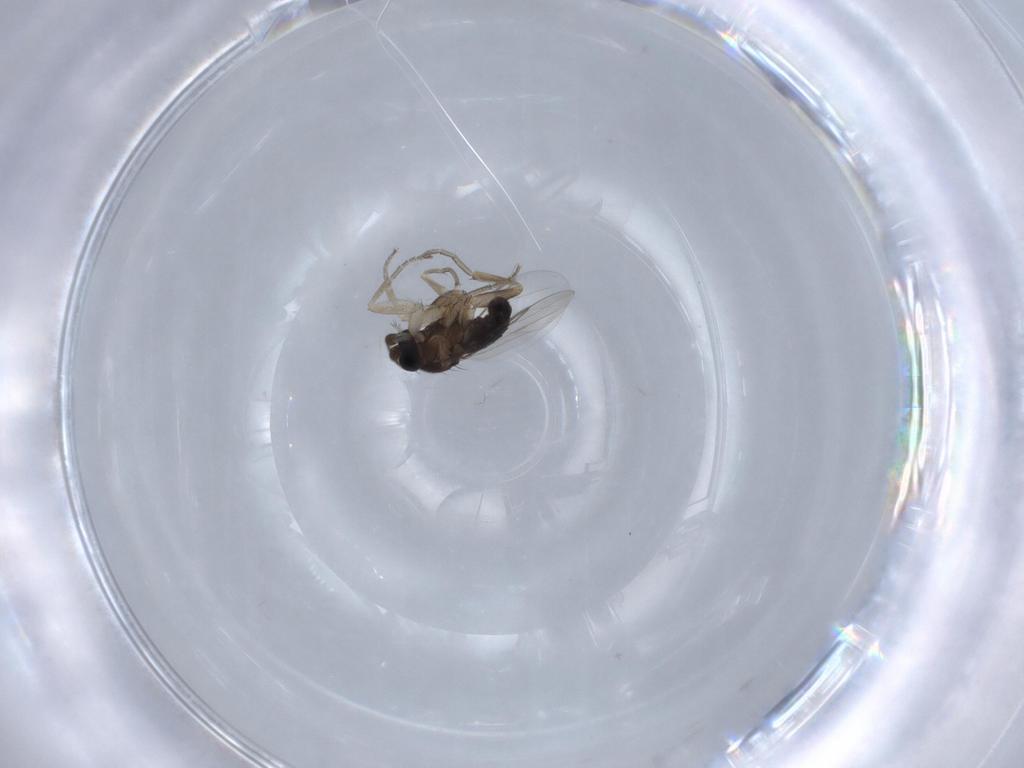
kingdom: Animalia
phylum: Arthropoda
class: Insecta
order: Diptera
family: Phoridae
